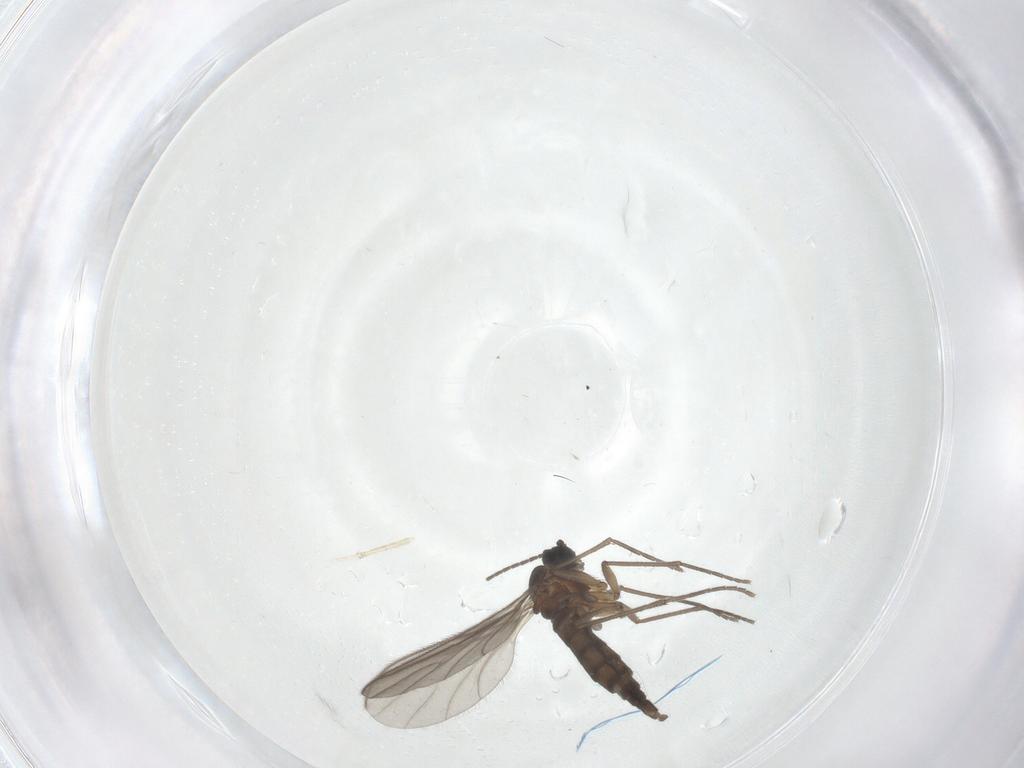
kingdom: Animalia
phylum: Arthropoda
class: Insecta
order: Diptera
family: Sciaridae
